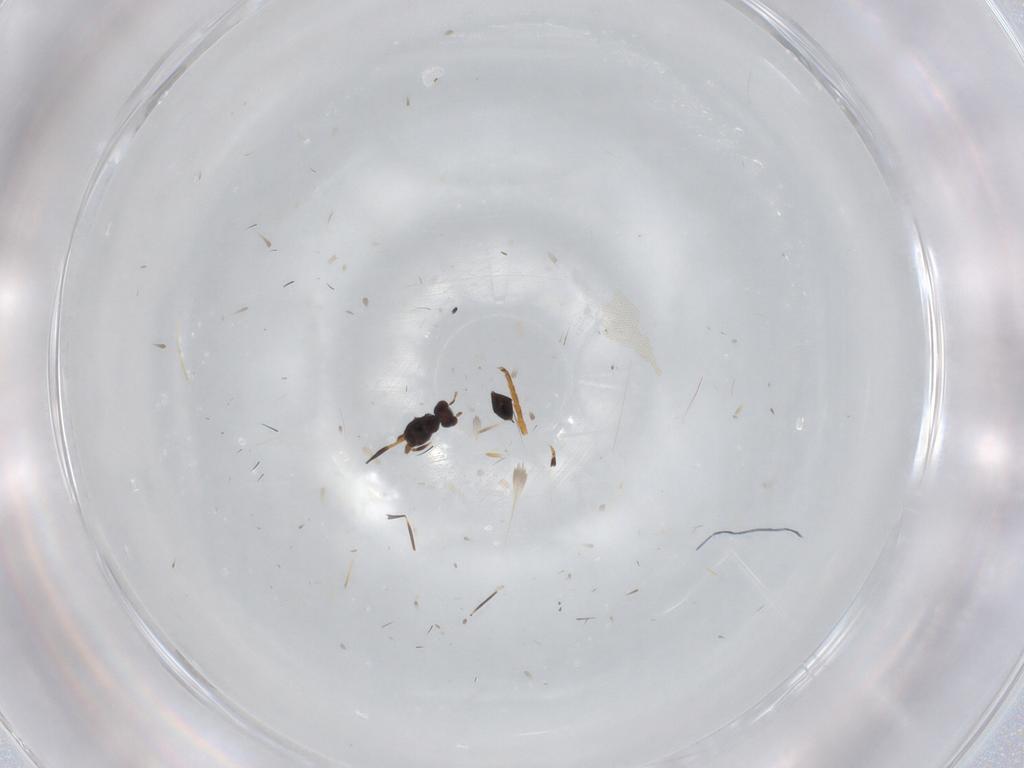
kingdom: Animalia
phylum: Arthropoda
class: Insecta
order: Hymenoptera
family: Mymaridae
